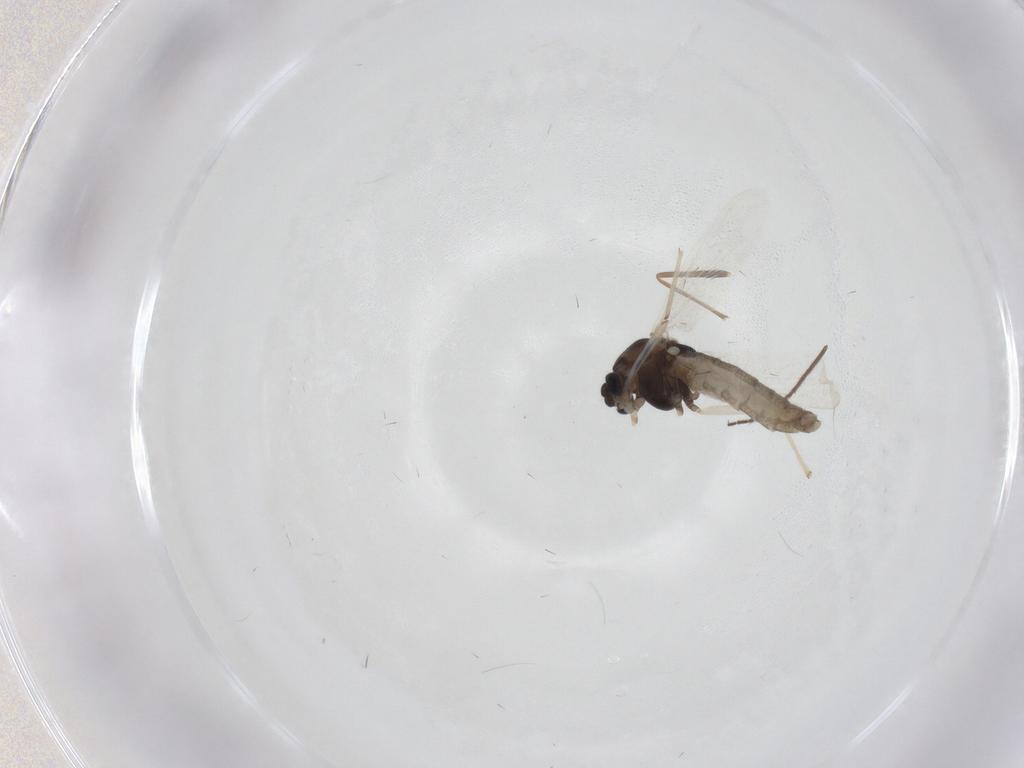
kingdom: Animalia
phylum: Arthropoda
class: Insecta
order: Diptera
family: Chironomidae
